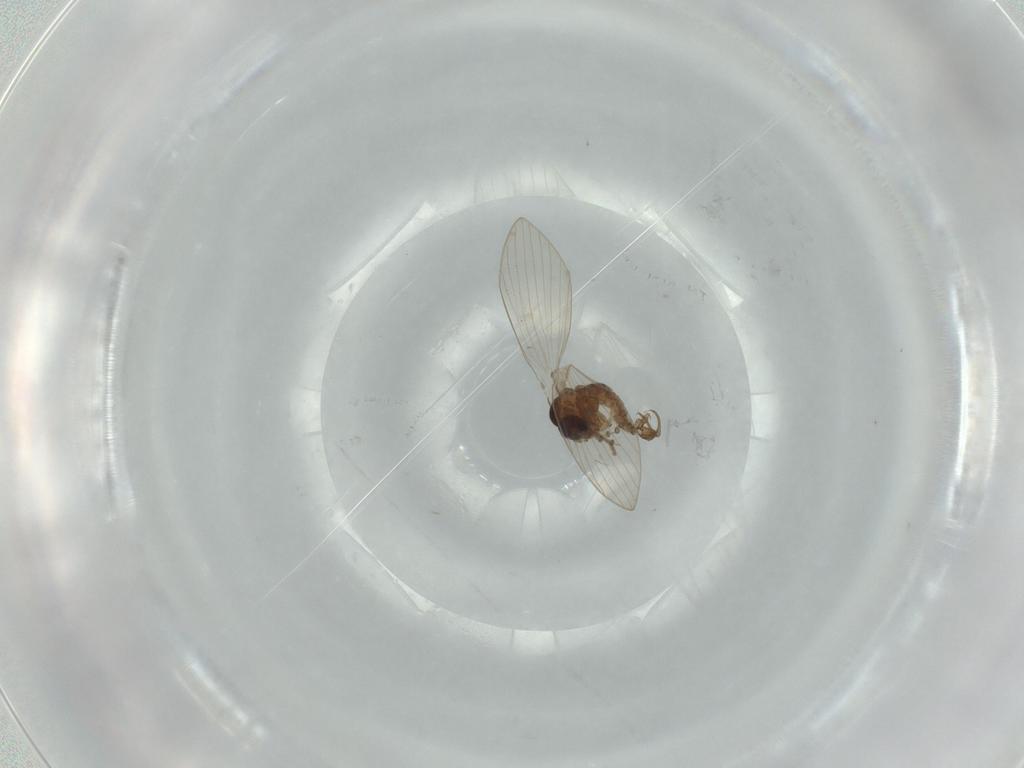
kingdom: Animalia
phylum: Arthropoda
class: Insecta
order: Diptera
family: Psychodidae
